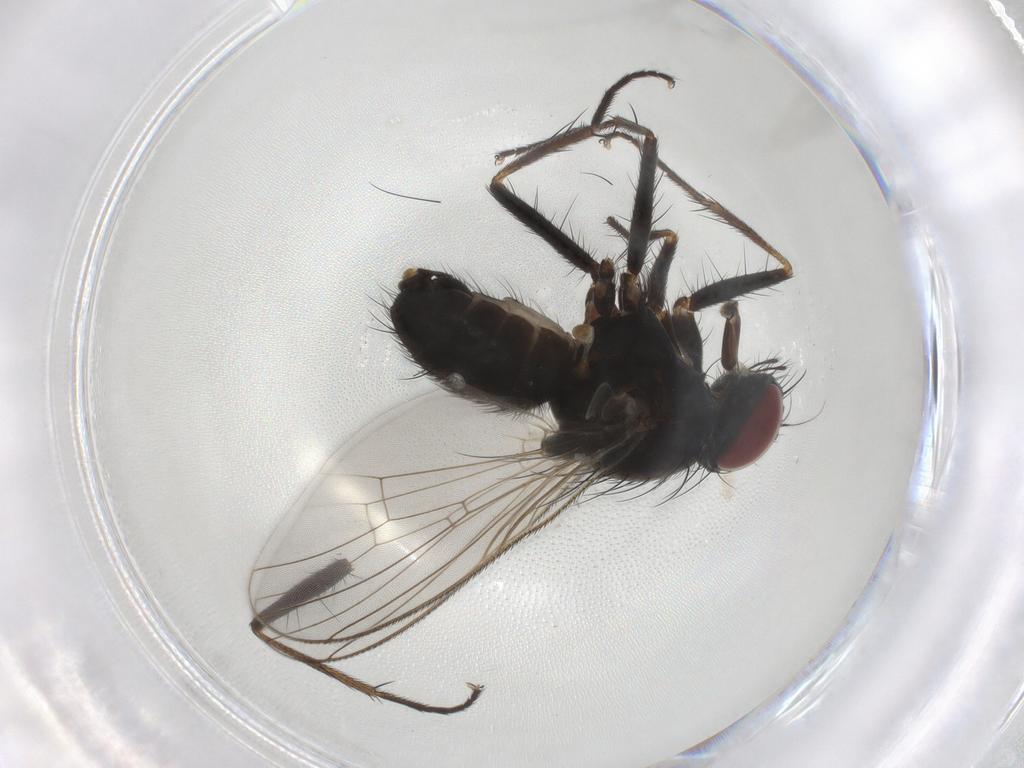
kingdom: Animalia
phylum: Arthropoda
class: Insecta
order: Diptera
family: Muscidae
